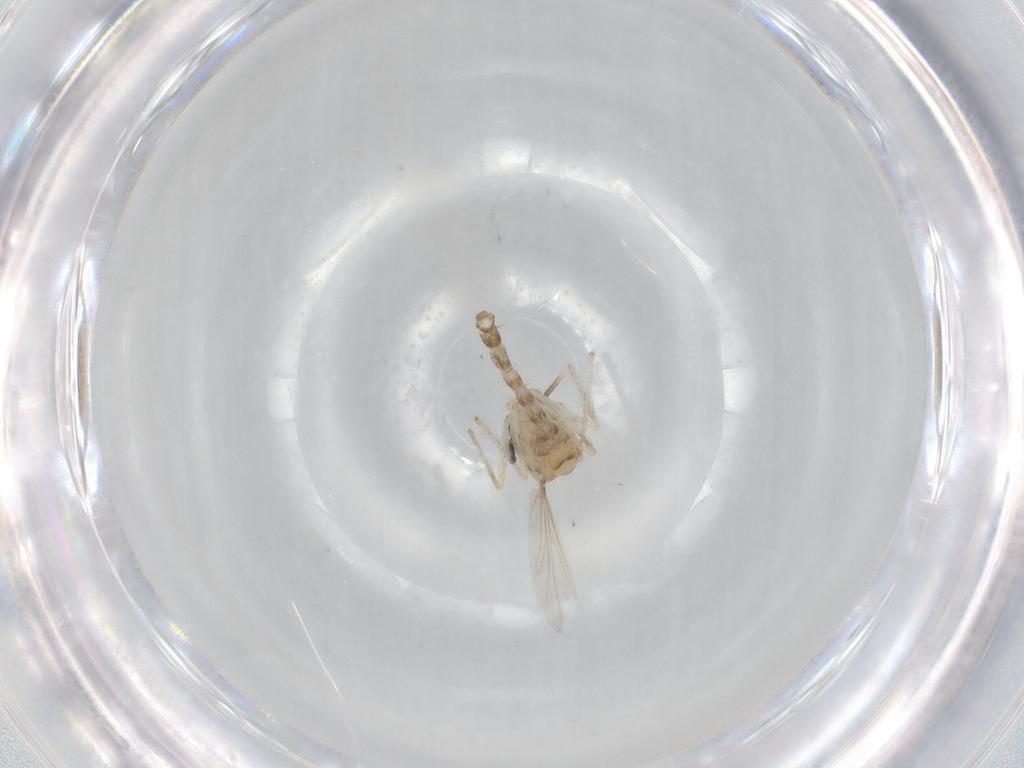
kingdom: Animalia
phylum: Arthropoda
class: Insecta
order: Diptera
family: Chironomidae
